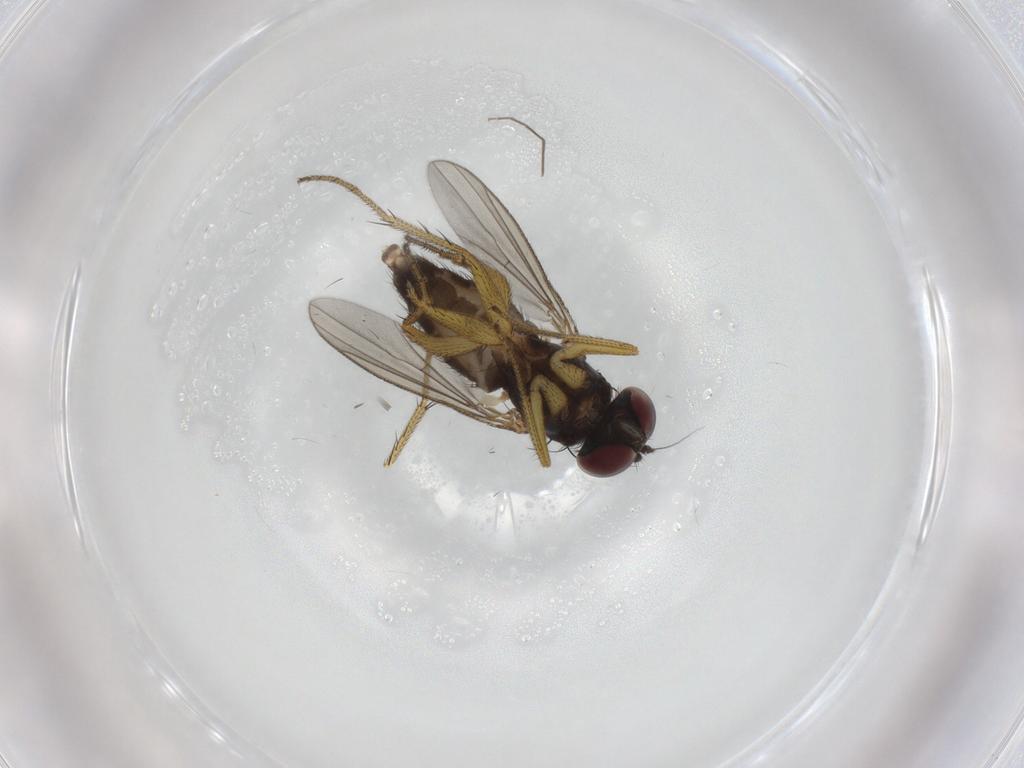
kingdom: Animalia
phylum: Arthropoda
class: Insecta
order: Diptera
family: Dolichopodidae
